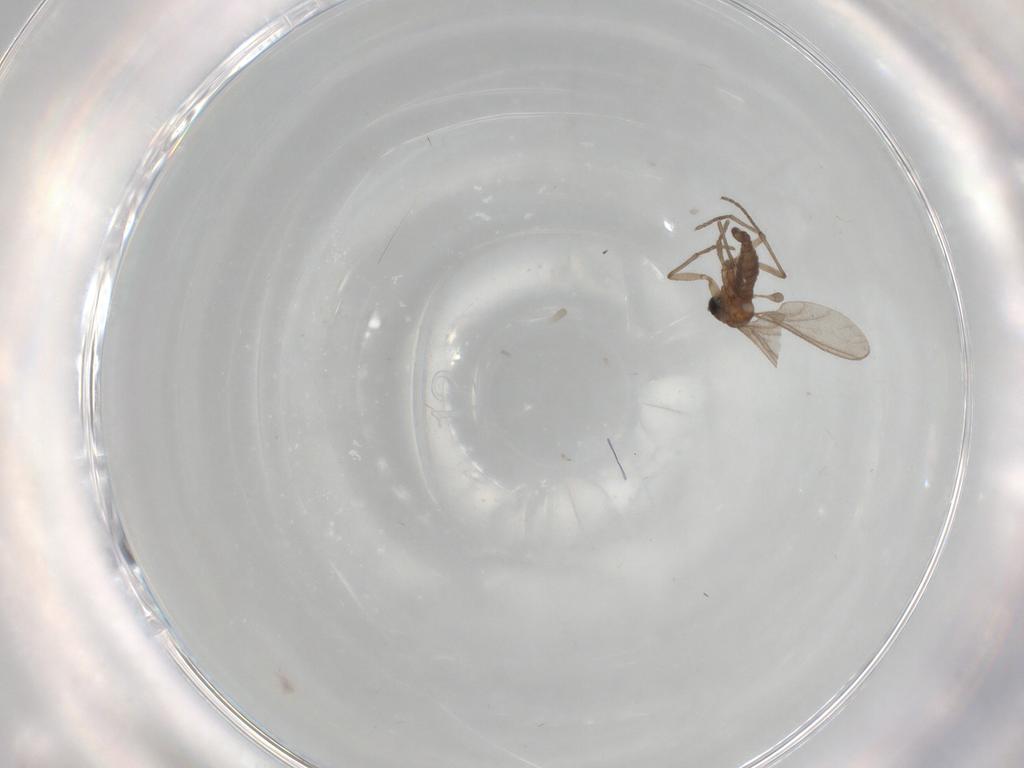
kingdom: Animalia
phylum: Arthropoda
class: Insecta
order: Diptera
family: Sciaridae
